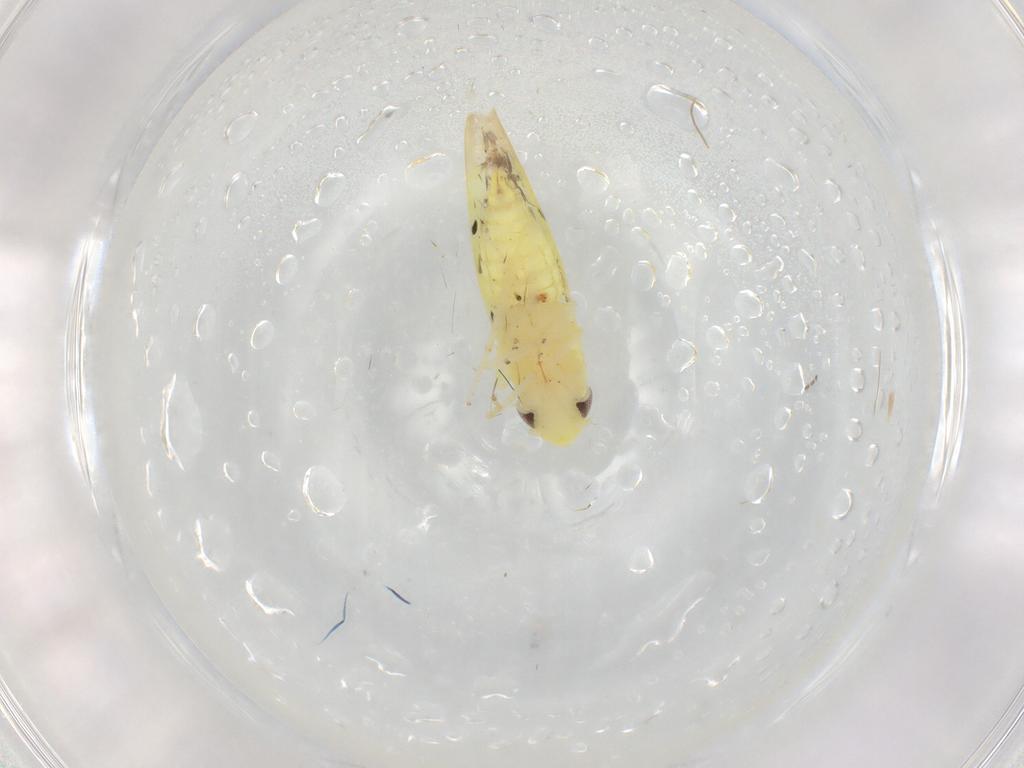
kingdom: Animalia
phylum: Arthropoda
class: Insecta
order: Hemiptera
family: Cicadellidae
